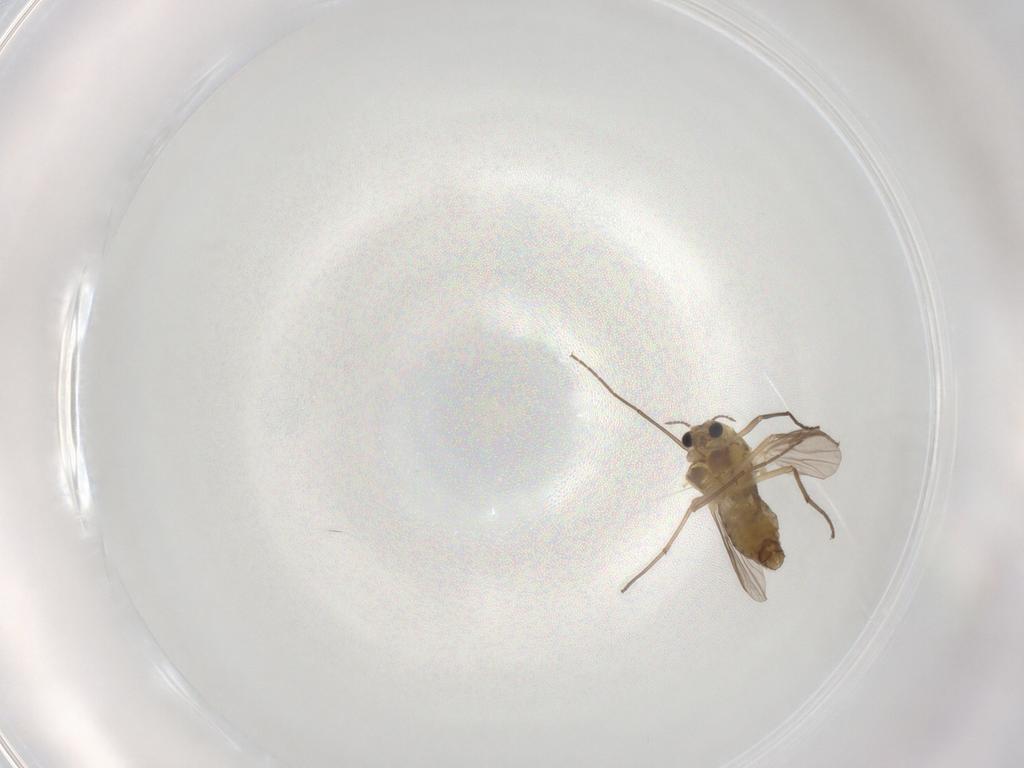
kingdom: Animalia
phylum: Arthropoda
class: Insecta
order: Diptera
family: Chironomidae
